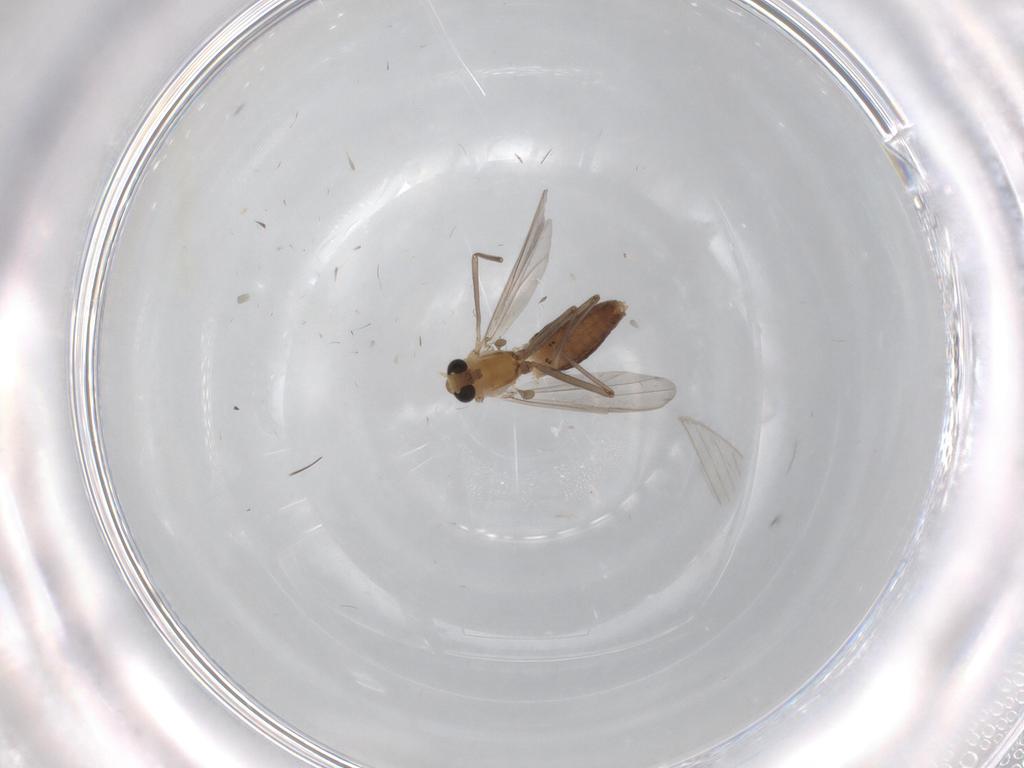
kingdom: Animalia
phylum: Arthropoda
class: Insecta
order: Diptera
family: Chironomidae
